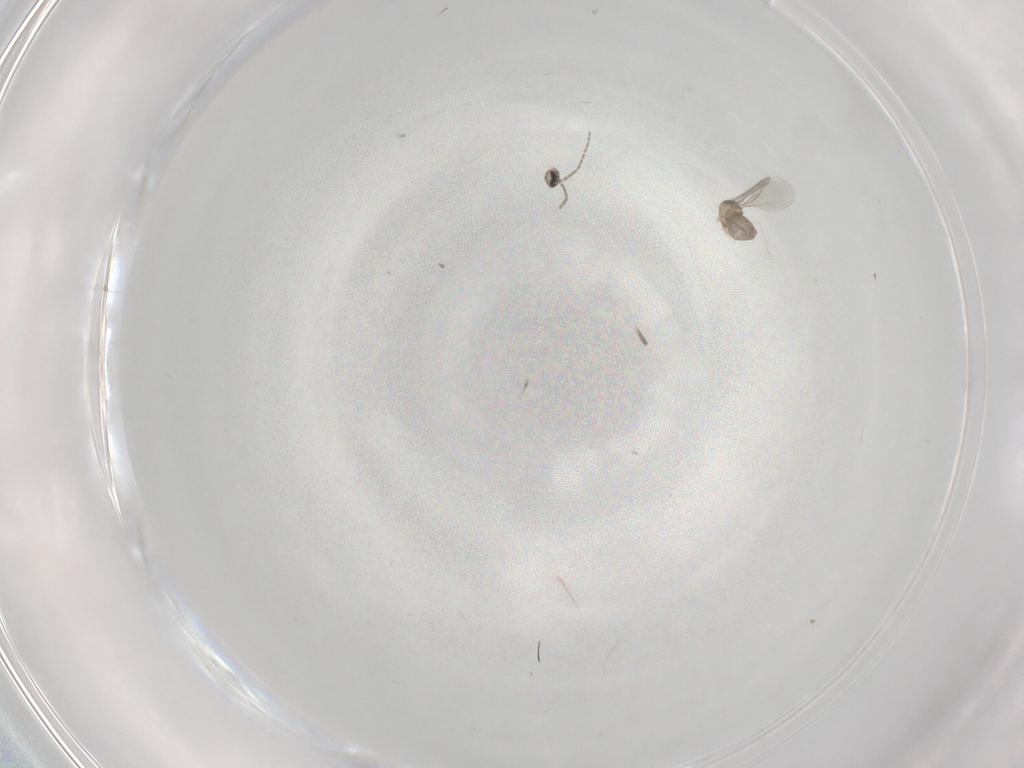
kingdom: Animalia
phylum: Arthropoda
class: Insecta
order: Diptera
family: Cecidomyiidae
